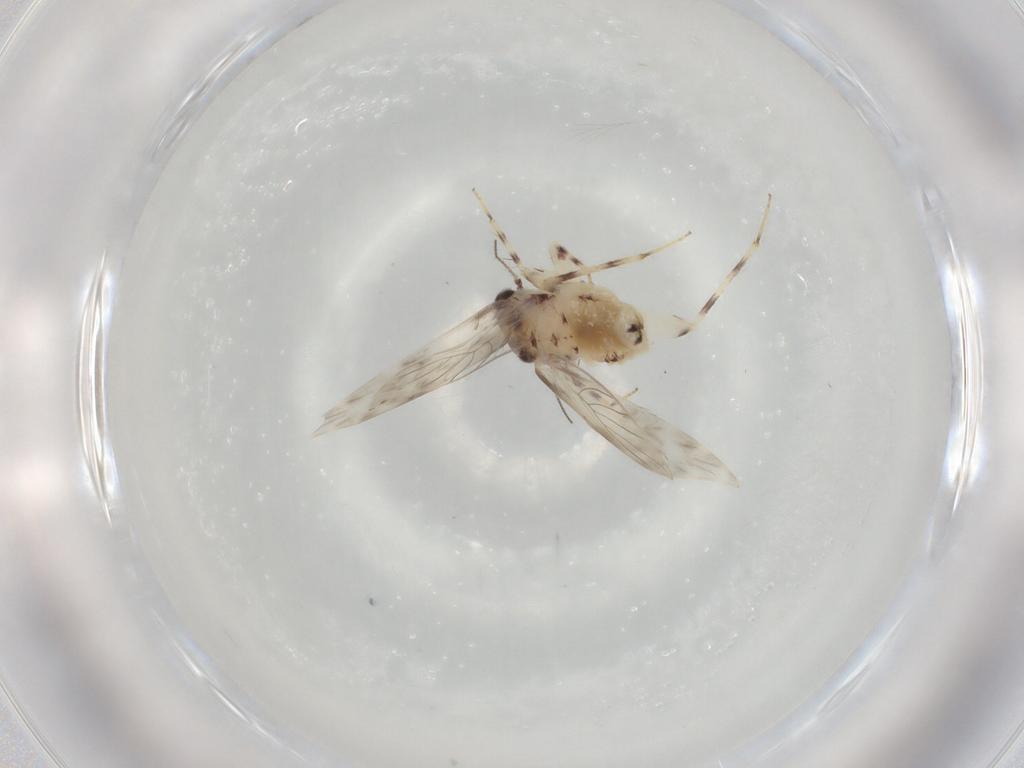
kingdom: Animalia
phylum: Arthropoda
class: Insecta
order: Psocodea
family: Lepidopsocidae
